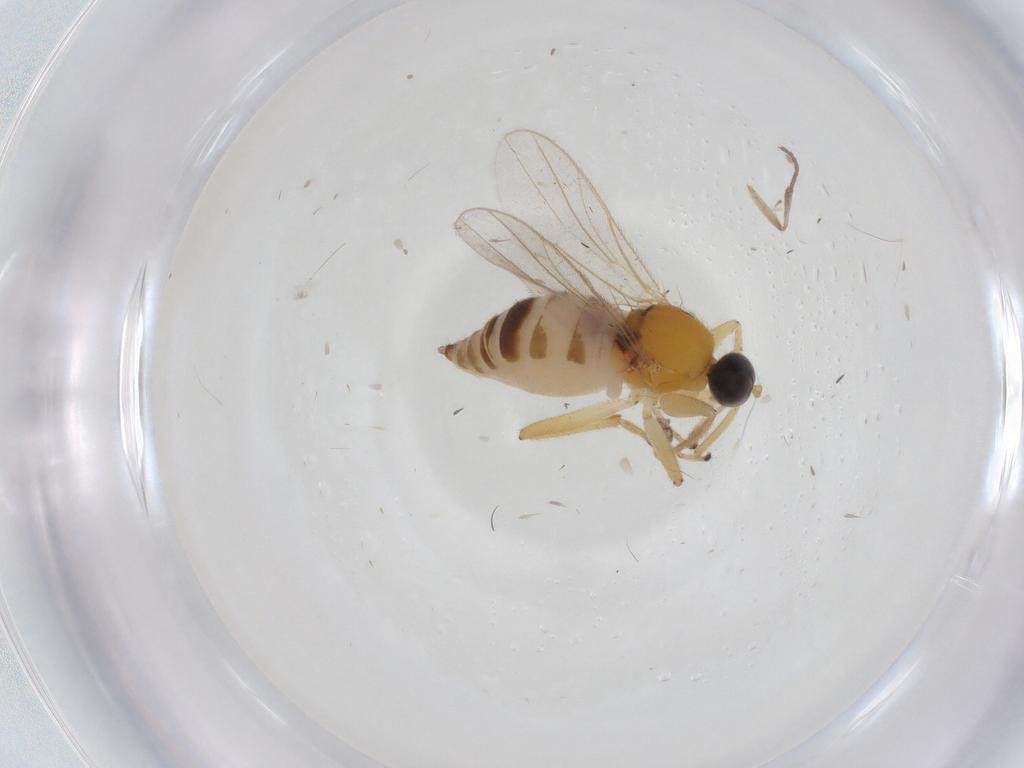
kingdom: Animalia
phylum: Arthropoda
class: Insecta
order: Diptera
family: Hybotidae
